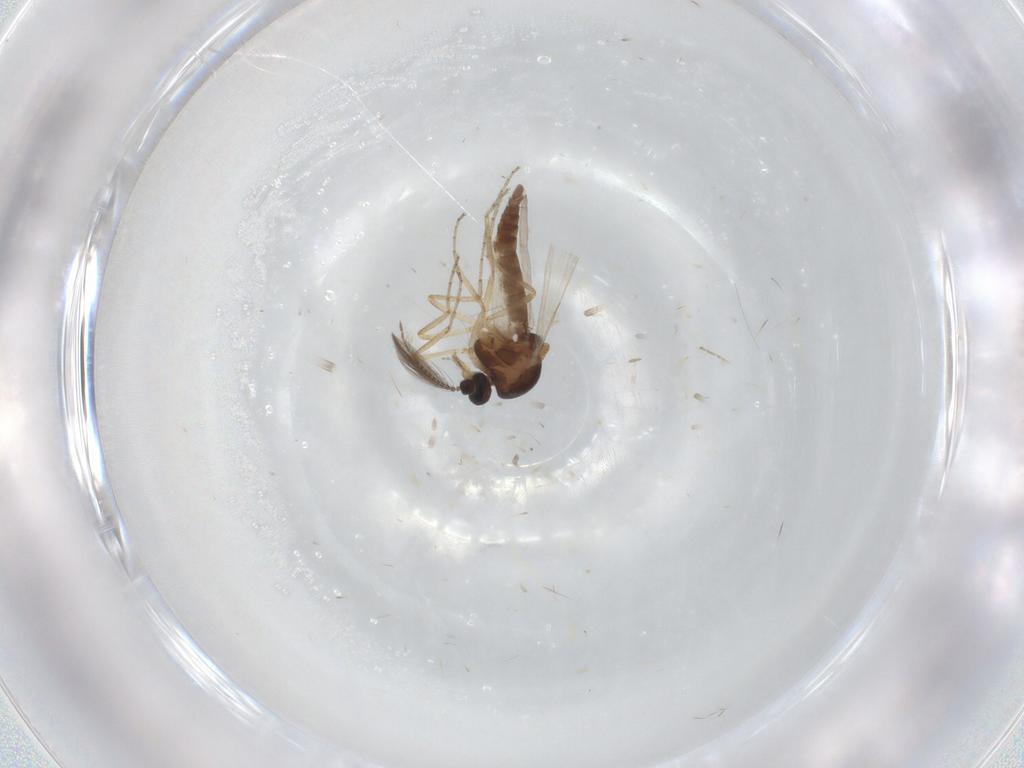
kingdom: Animalia
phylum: Arthropoda
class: Insecta
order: Diptera
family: Ceratopogonidae
